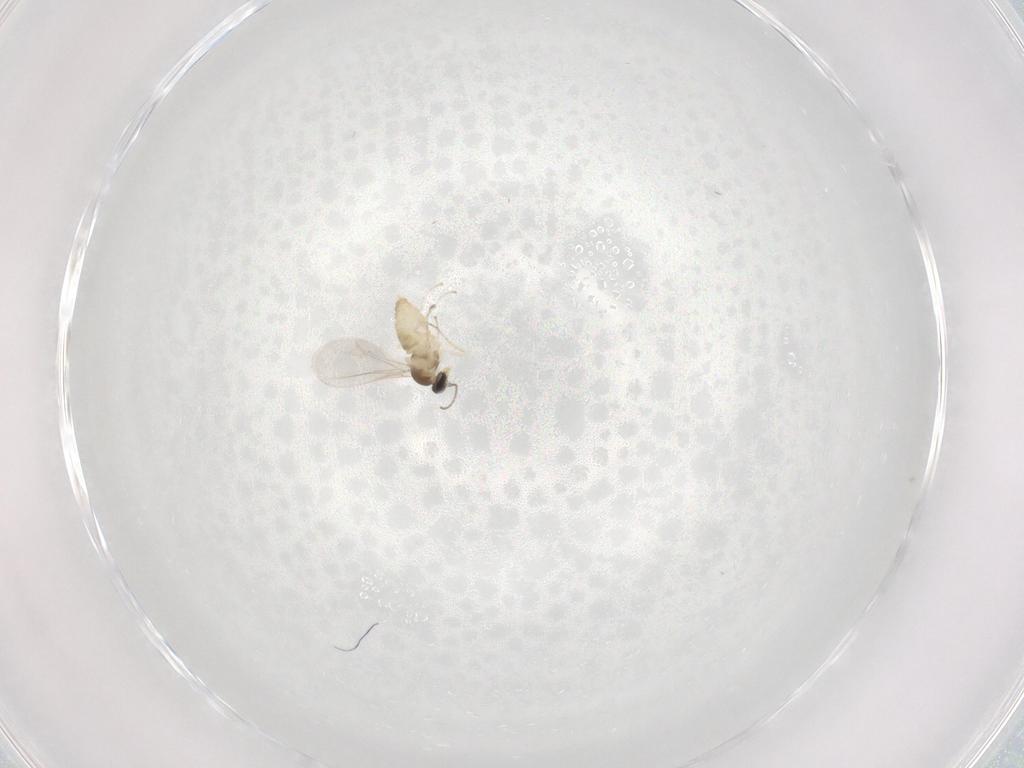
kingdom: Animalia
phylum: Arthropoda
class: Insecta
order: Diptera
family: Cecidomyiidae
